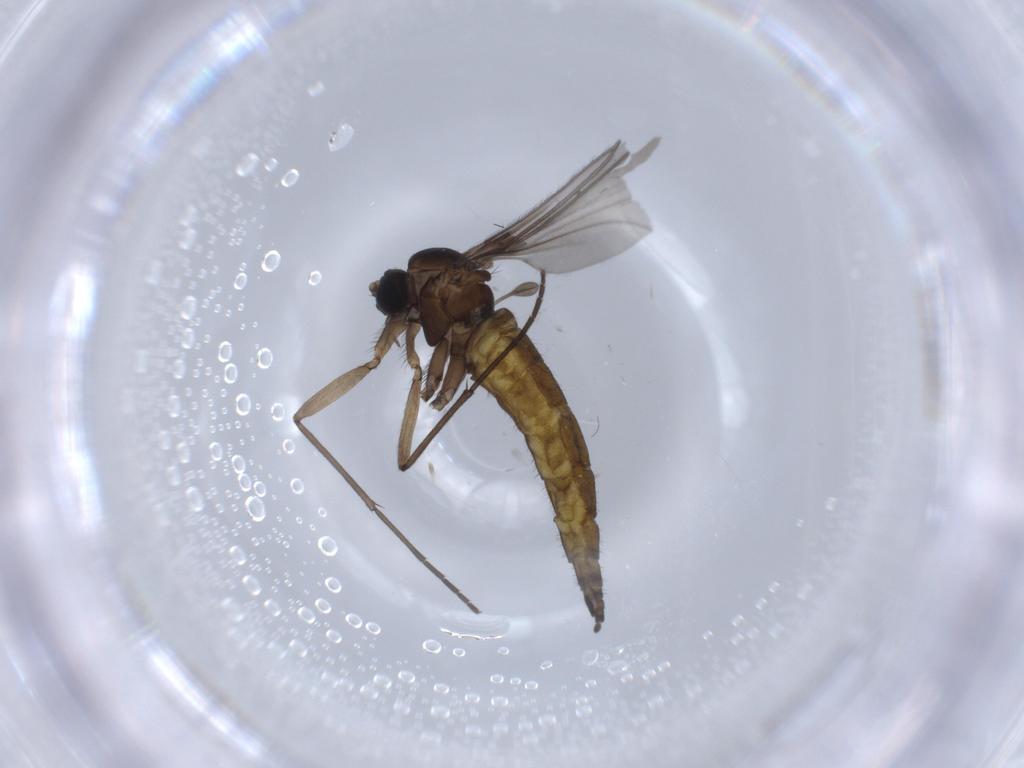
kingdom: Animalia
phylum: Arthropoda
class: Insecta
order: Diptera
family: Sciaridae
